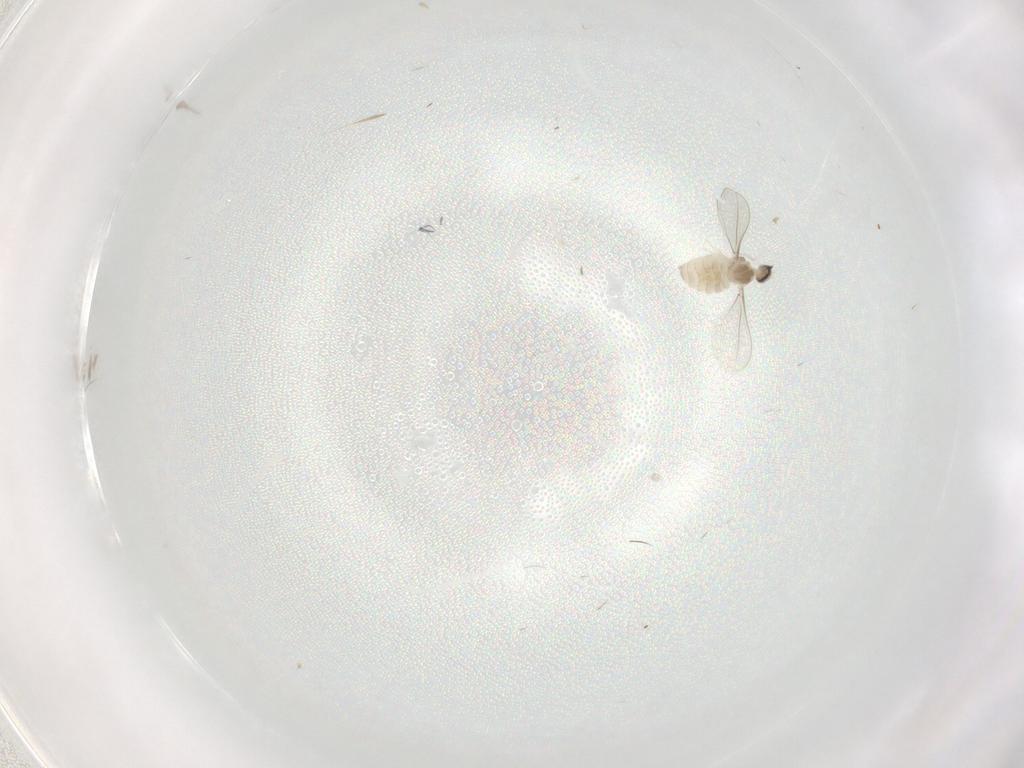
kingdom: Animalia
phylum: Arthropoda
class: Insecta
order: Diptera
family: Cecidomyiidae
